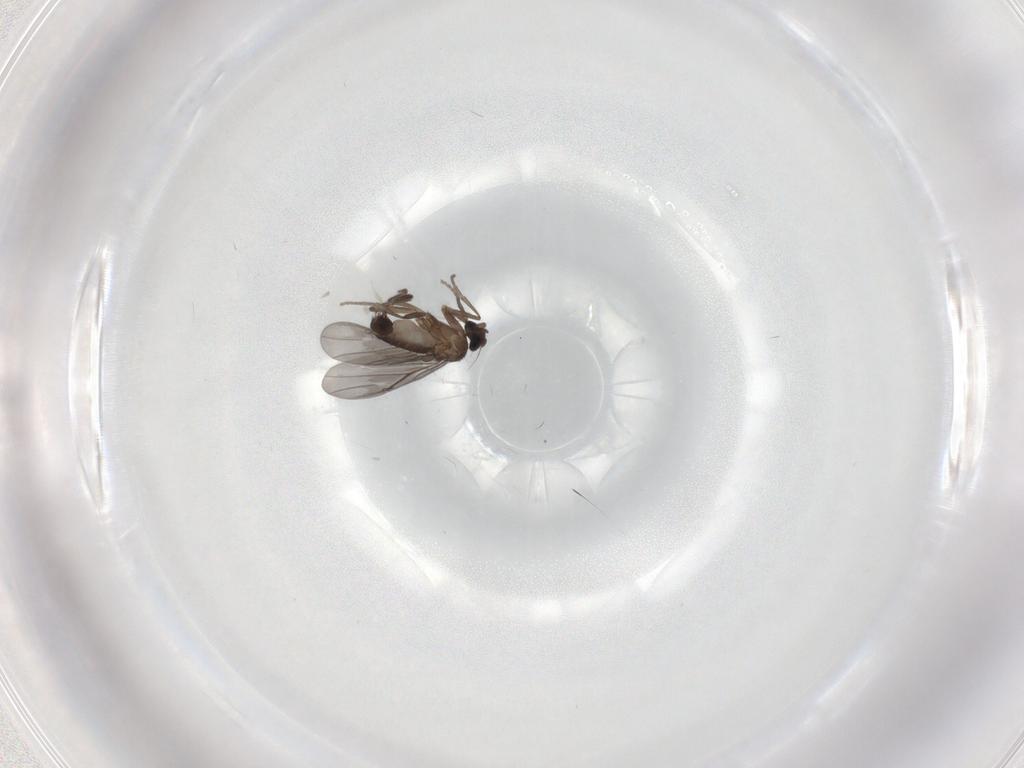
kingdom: Animalia
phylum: Arthropoda
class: Insecta
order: Diptera
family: Phoridae
